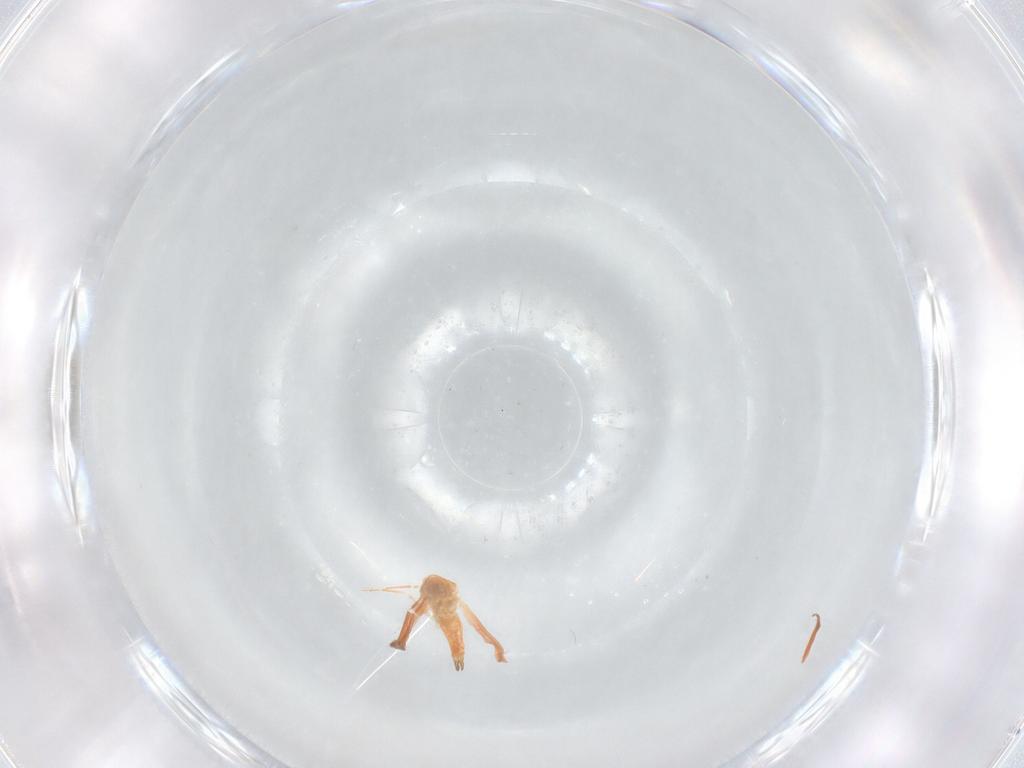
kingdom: Animalia
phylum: Arthropoda
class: Insecta
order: Hemiptera
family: Aleyrodidae
